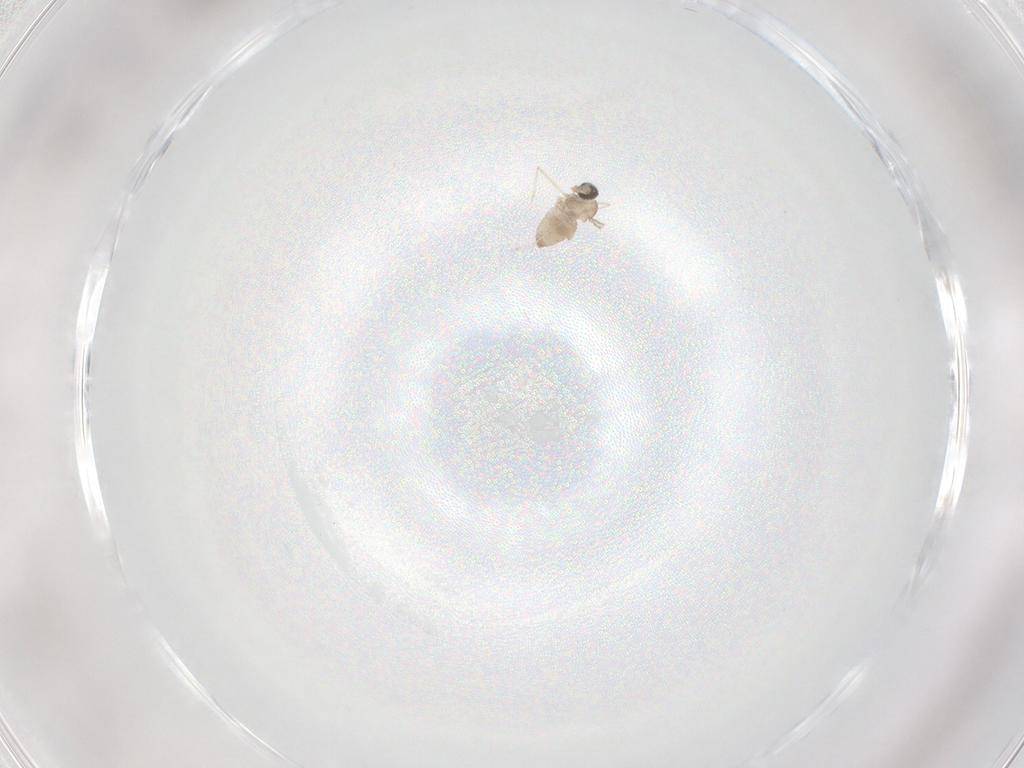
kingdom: Animalia
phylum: Arthropoda
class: Insecta
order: Diptera
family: Cecidomyiidae
